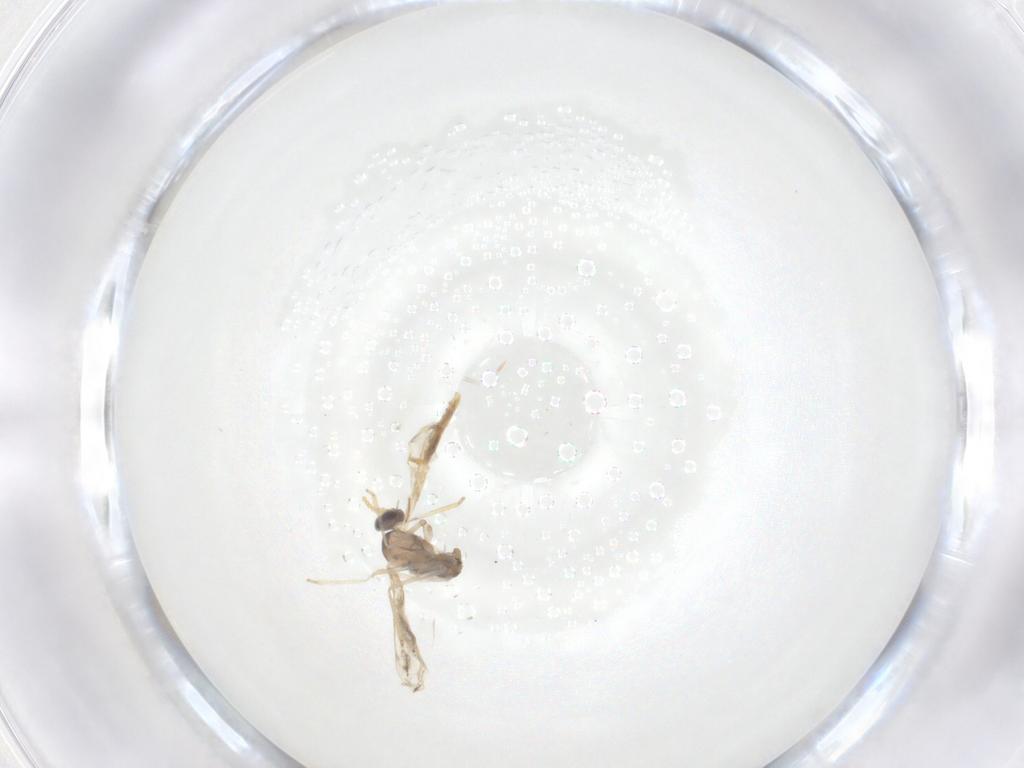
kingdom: Animalia
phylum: Arthropoda
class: Insecta
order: Diptera
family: Cecidomyiidae
